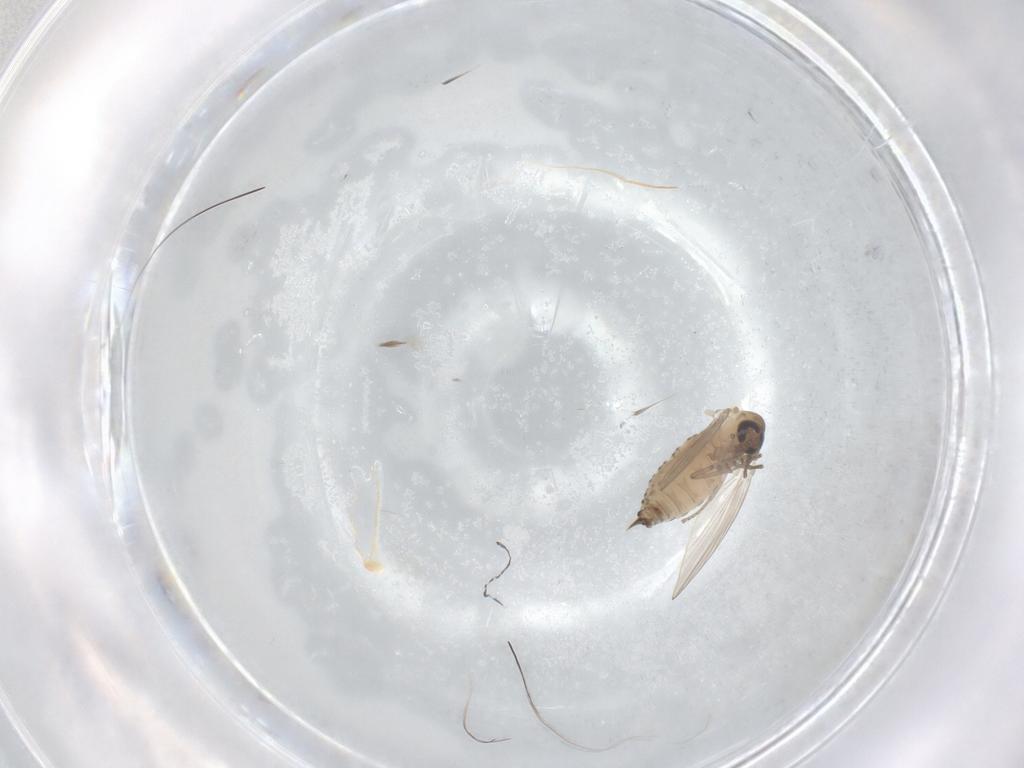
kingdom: Animalia
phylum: Arthropoda
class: Insecta
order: Diptera
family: Psychodidae
